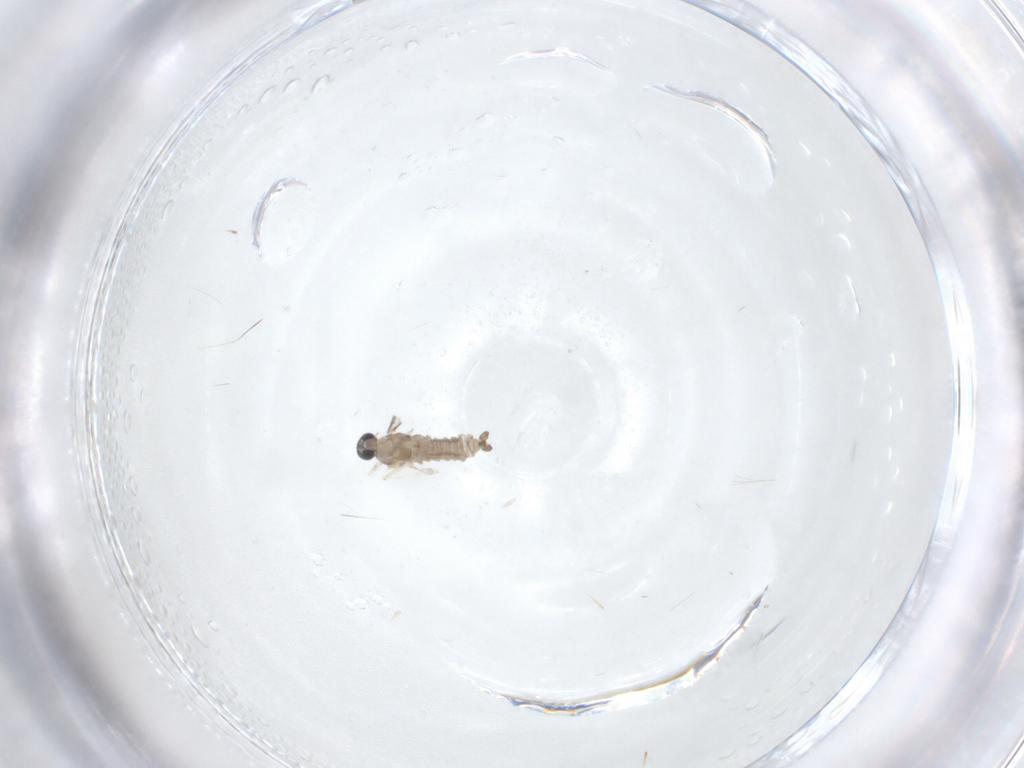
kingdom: Animalia
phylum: Arthropoda
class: Insecta
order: Diptera
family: Cecidomyiidae
